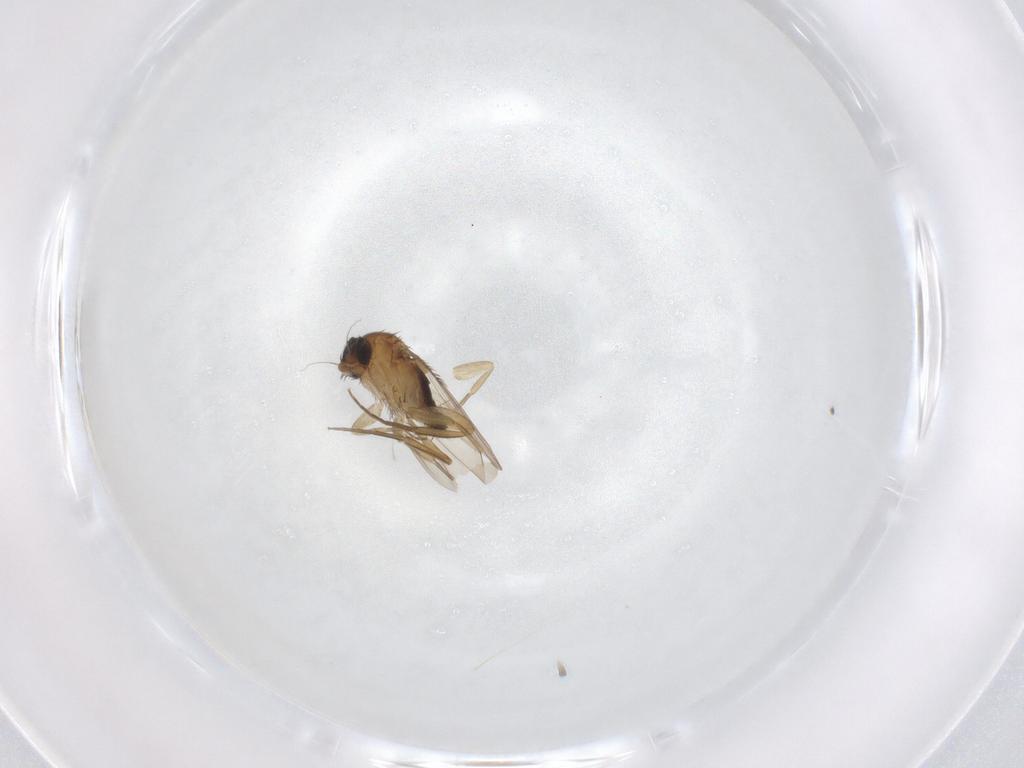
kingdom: Animalia
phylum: Arthropoda
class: Insecta
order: Diptera
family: Phoridae
